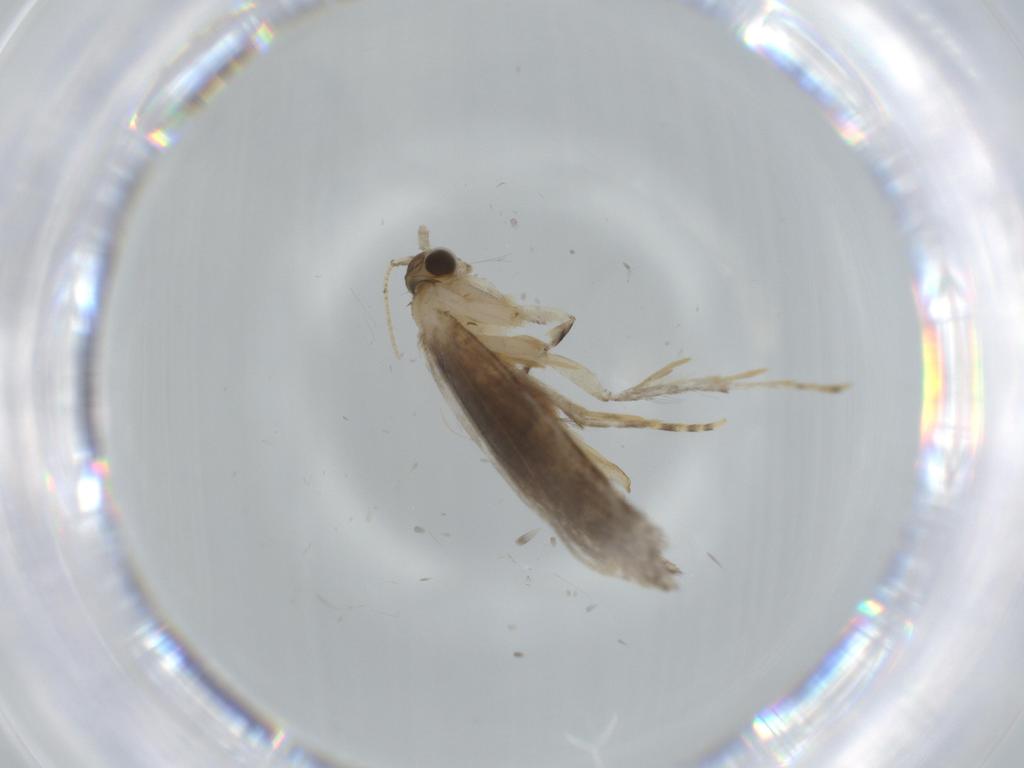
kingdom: Animalia
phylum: Arthropoda
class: Insecta
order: Lepidoptera
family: Tineidae
